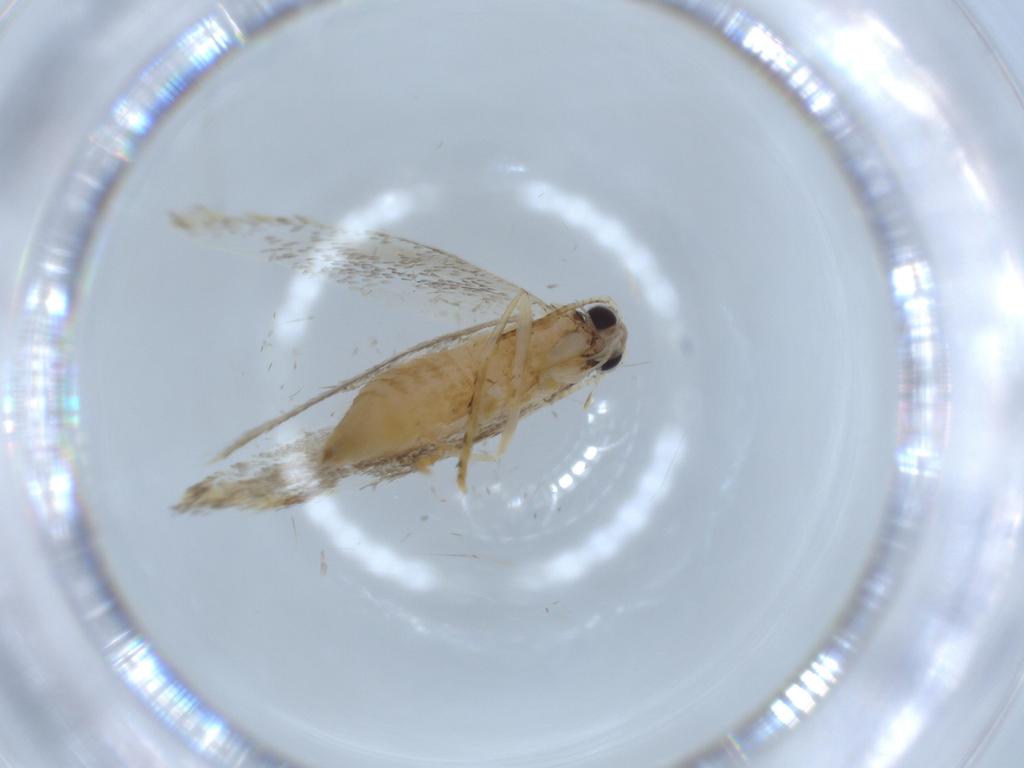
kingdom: Animalia
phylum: Arthropoda
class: Insecta
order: Lepidoptera
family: Tineidae
